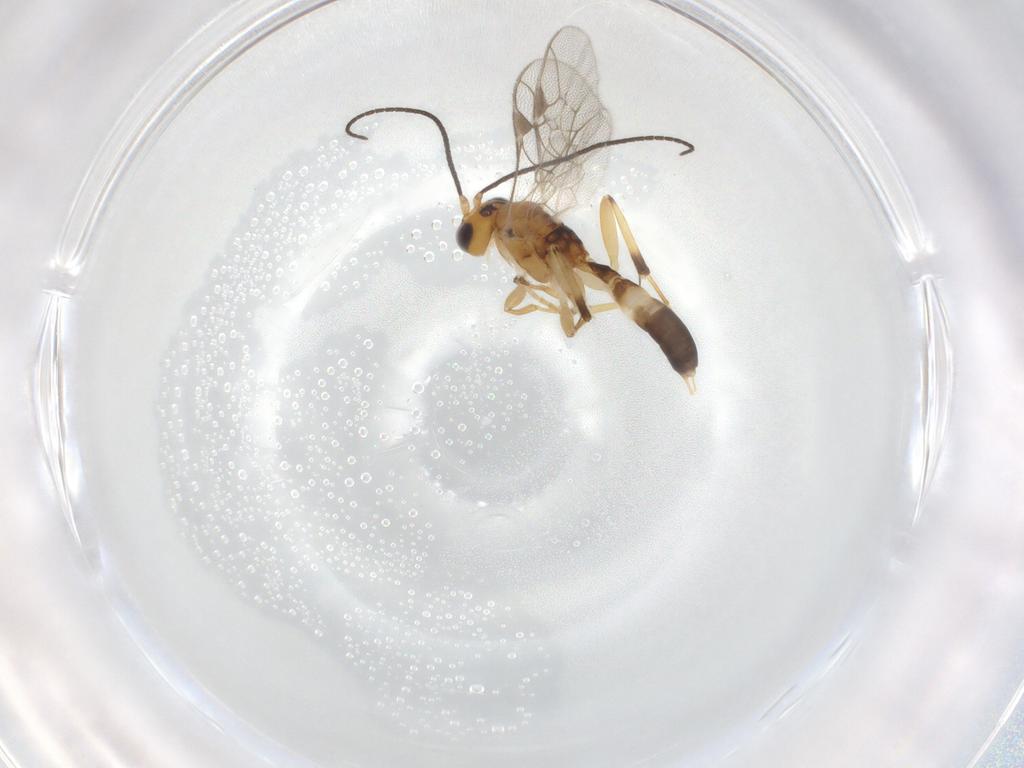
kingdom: Animalia
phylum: Arthropoda
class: Insecta
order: Hymenoptera
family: Ichneumonidae
